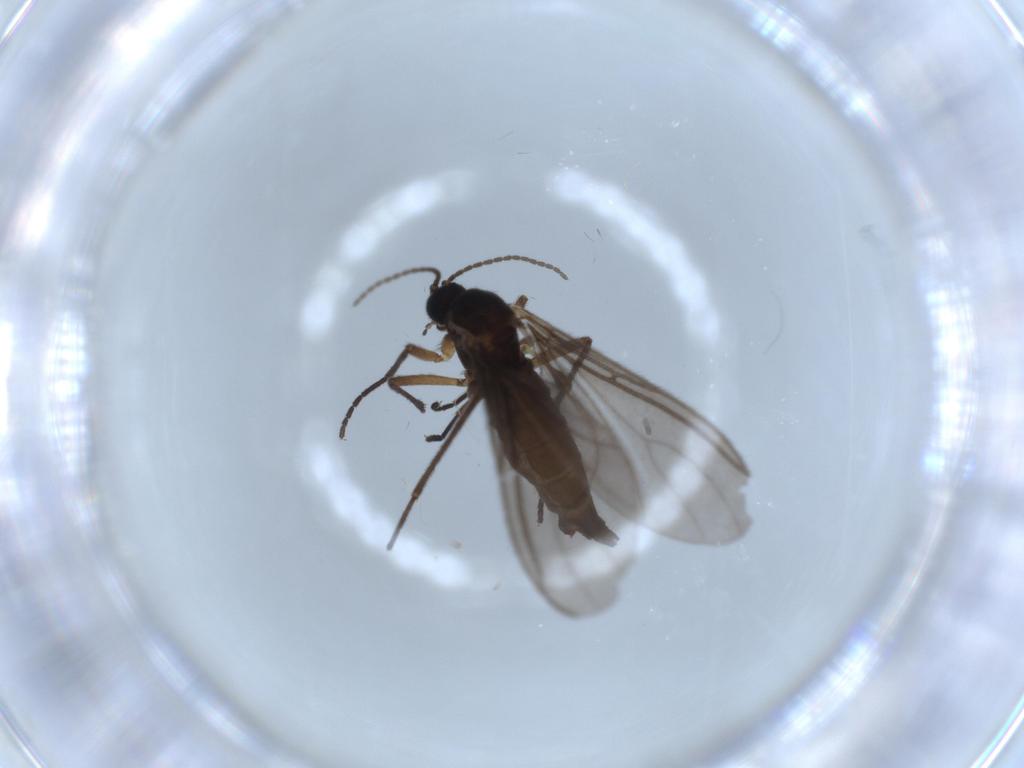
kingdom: Animalia
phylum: Arthropoda
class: Insecta
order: Diptera
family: Sciaridae
